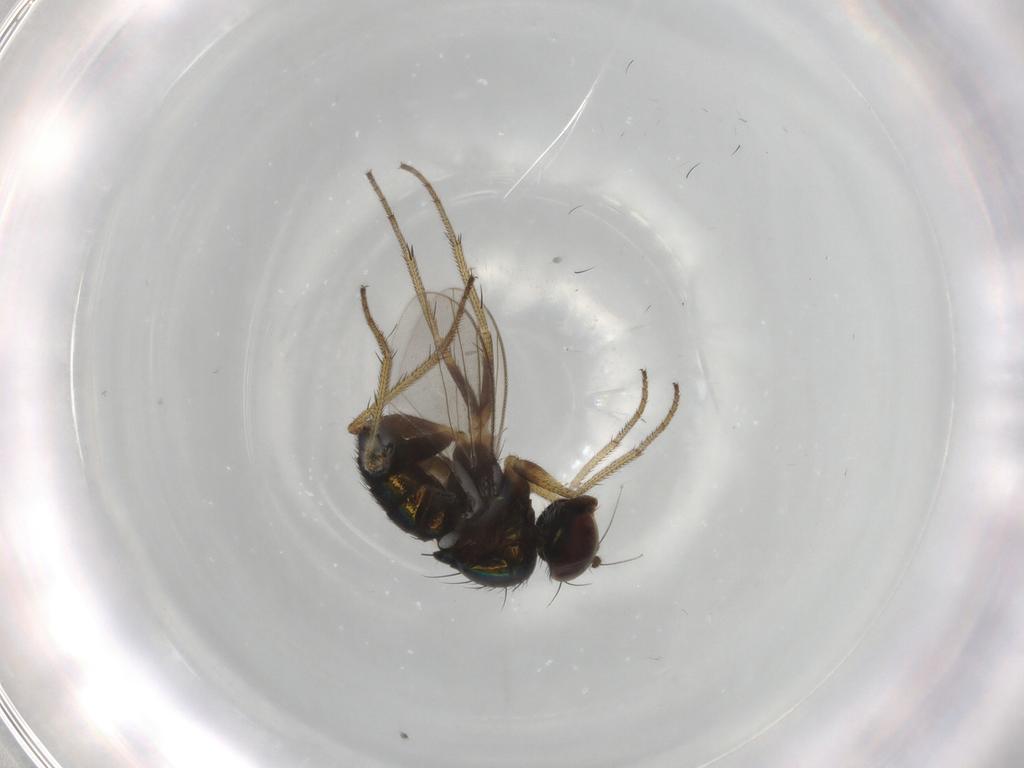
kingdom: Animalia
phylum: Arthropoda
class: Insecta
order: Diptera
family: Dolichopodidae
